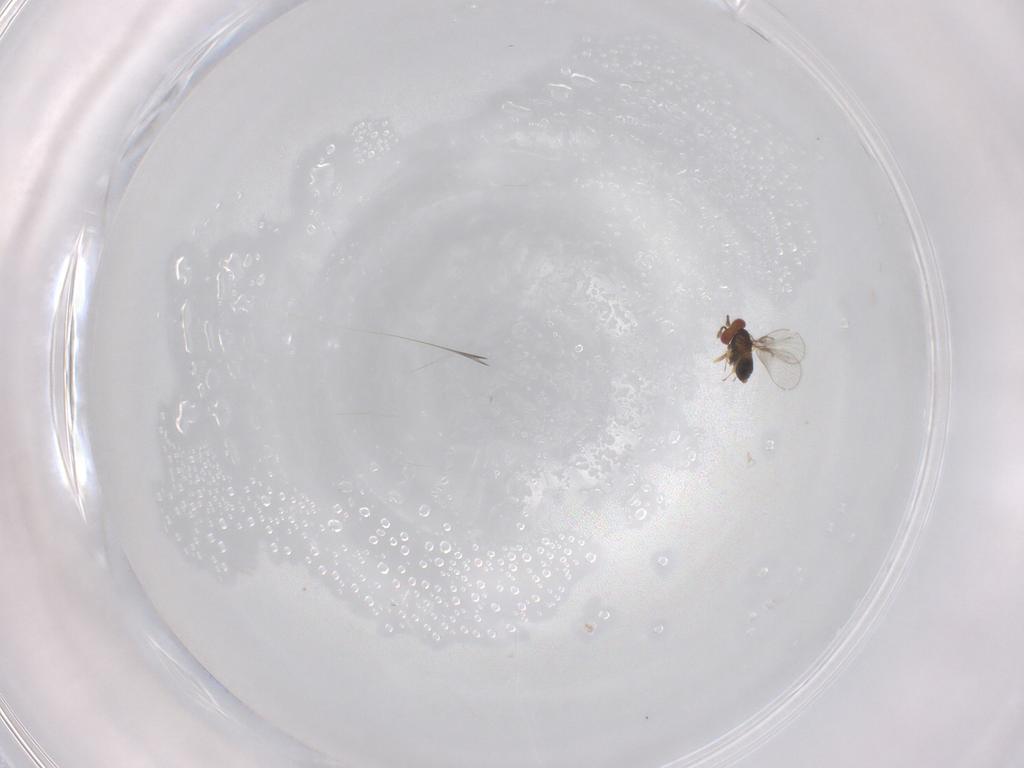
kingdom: Animalia
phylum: Arthropoda
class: Insecta
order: Hymenoptera
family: Trichogrammatidae
